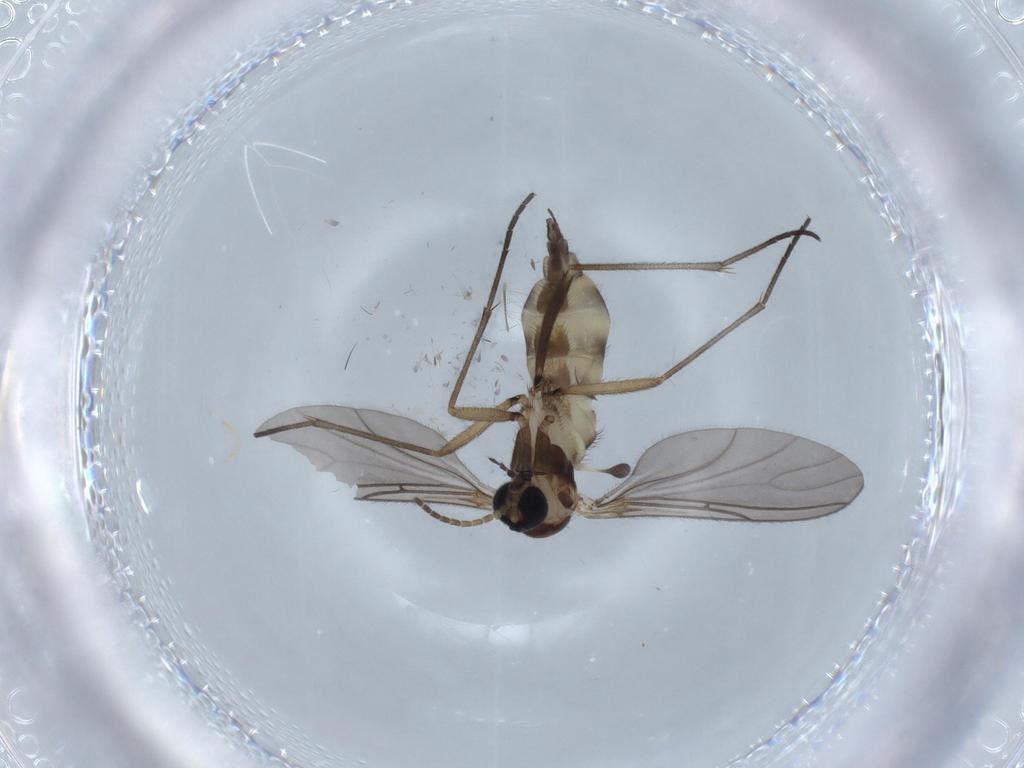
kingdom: Animalia
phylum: Arthropoda
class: Insecta
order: Diptera
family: Sciaridae
